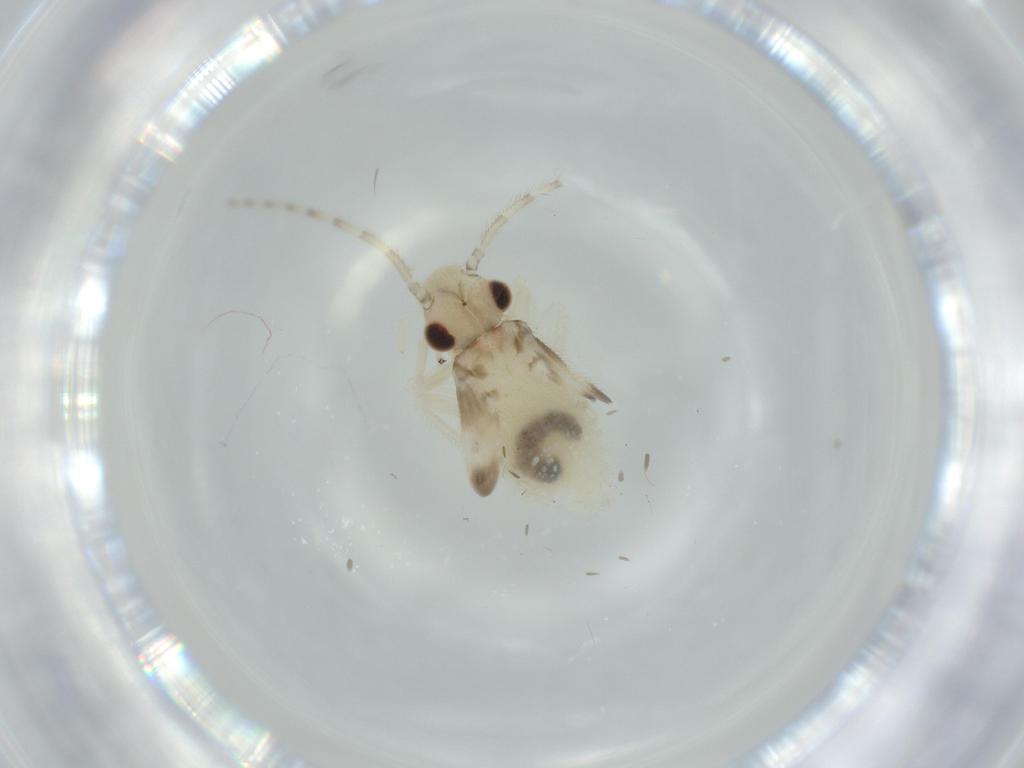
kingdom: Animalia
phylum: Arthropoda
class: Insecta
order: Psocodea
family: Amphipsocidae
